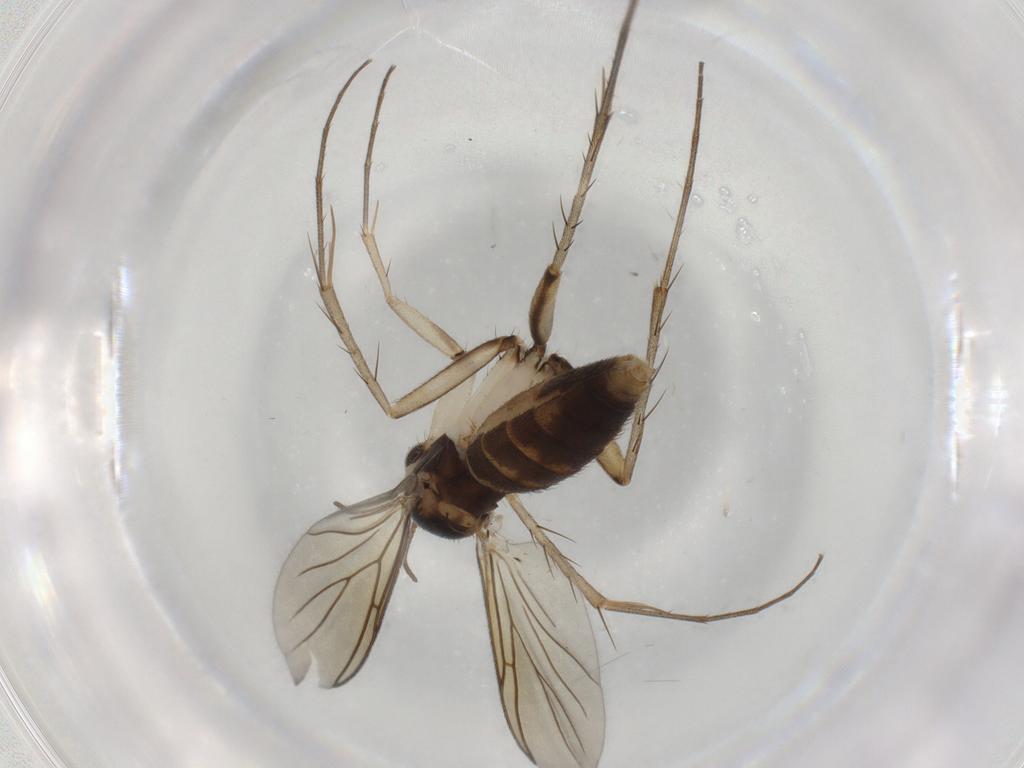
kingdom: Animalia
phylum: Arthropoda
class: Insecta
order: Diptera
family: Mycetophilidae
